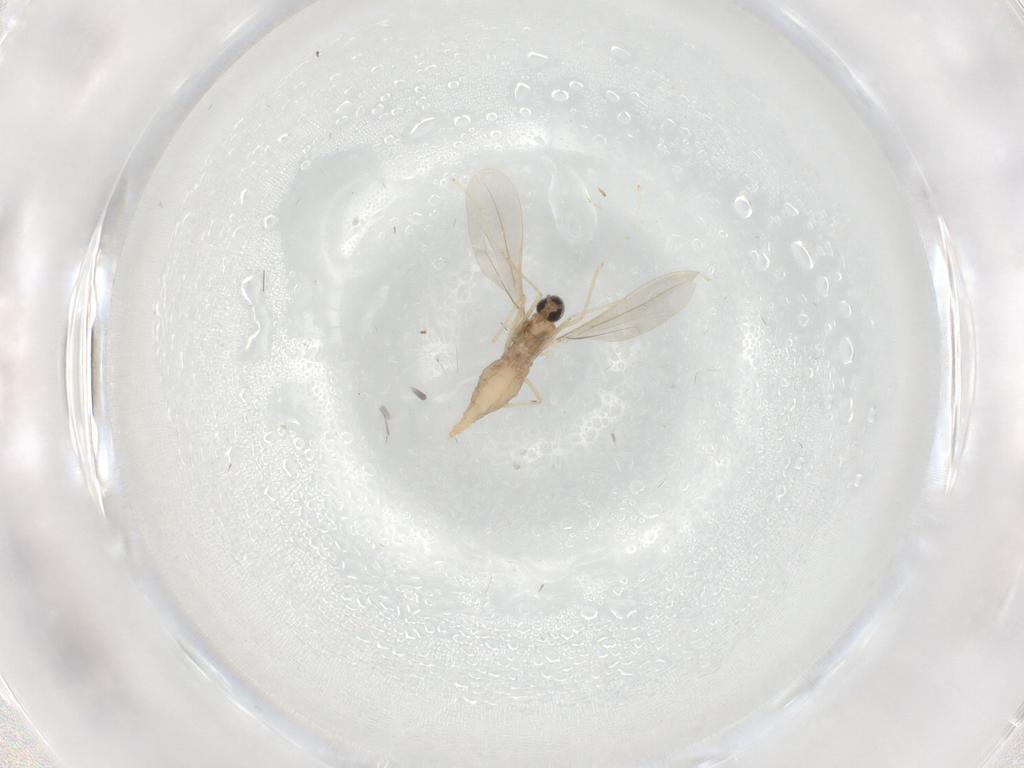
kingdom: Animalia
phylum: Arthropoda
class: Insecta
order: Diptera
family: Cecidomyiidae
